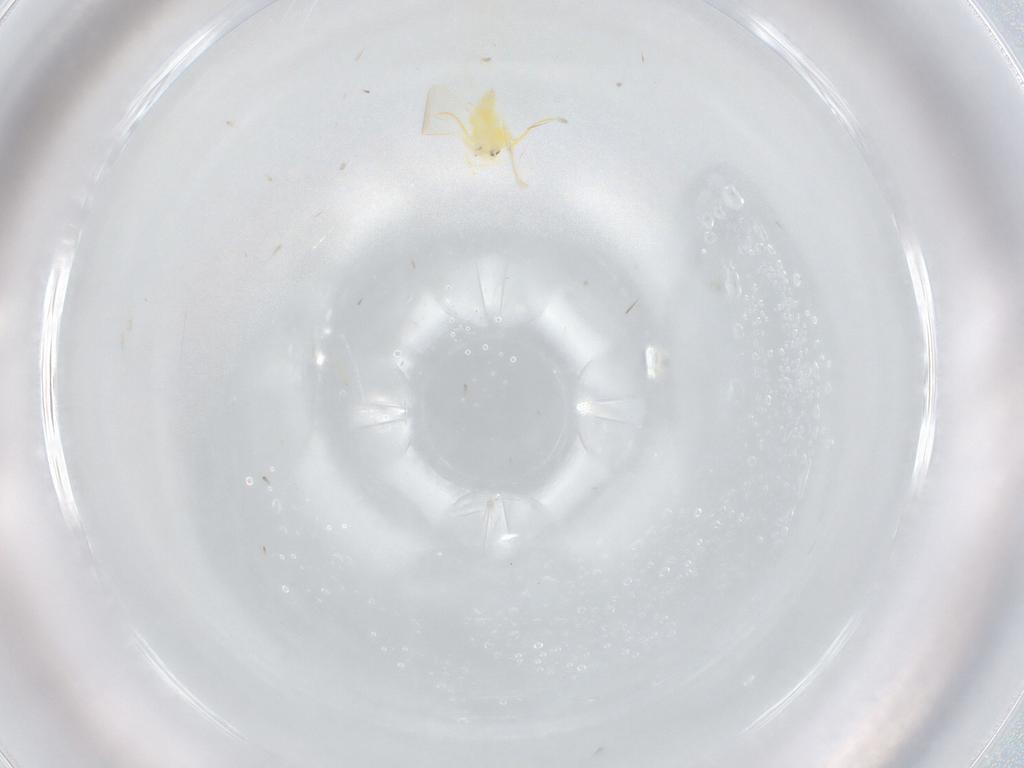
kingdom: Animalia
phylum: Arthropoda
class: Insecta
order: Hemiptera
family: Aleyrodidae
